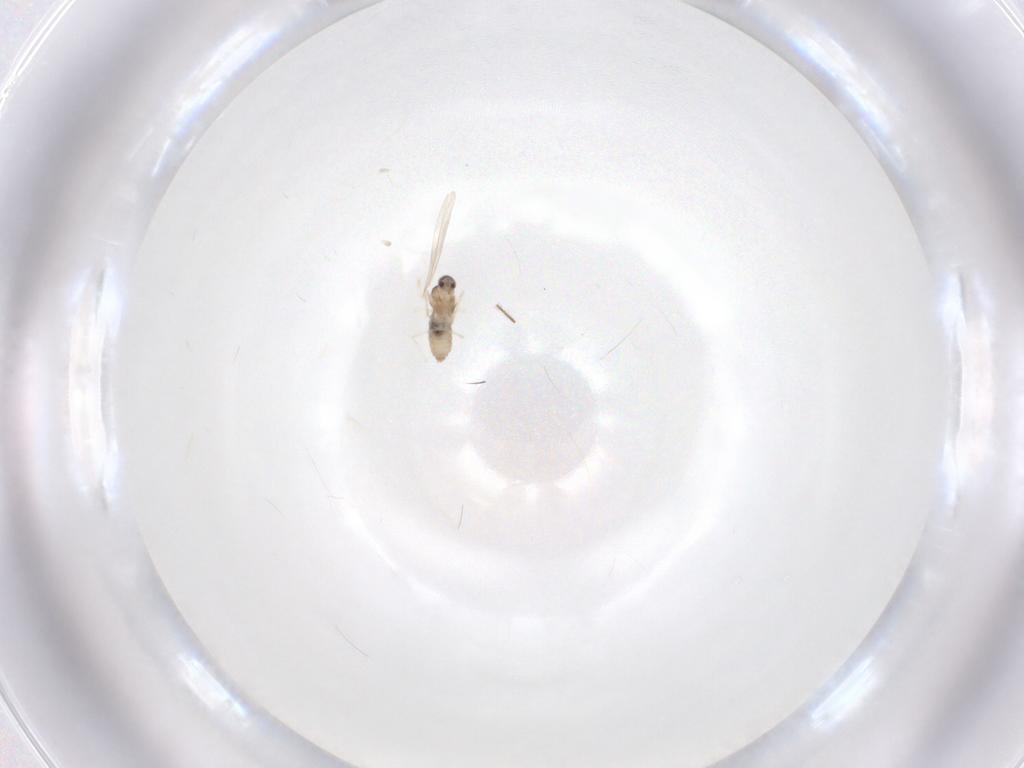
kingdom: Animalia
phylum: Arthropoda
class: Insecta
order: Diptera
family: Cecidomyiidae
